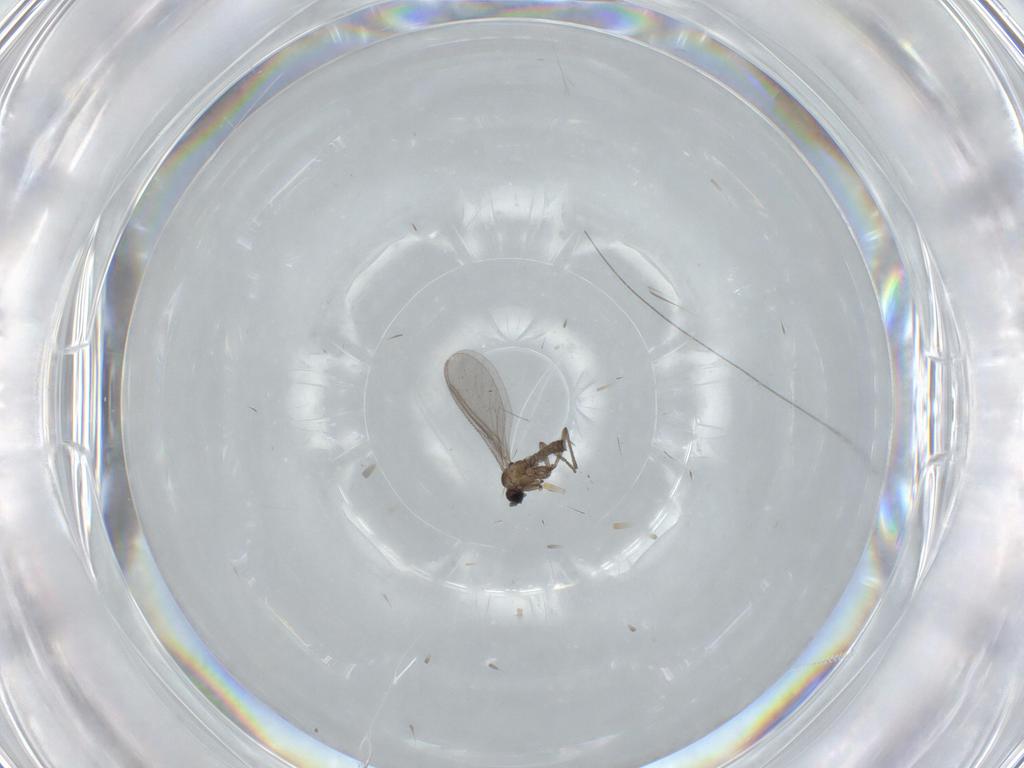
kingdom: Animalia
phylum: Arthropoda
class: Insecta
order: Diptera
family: Sciaridae
